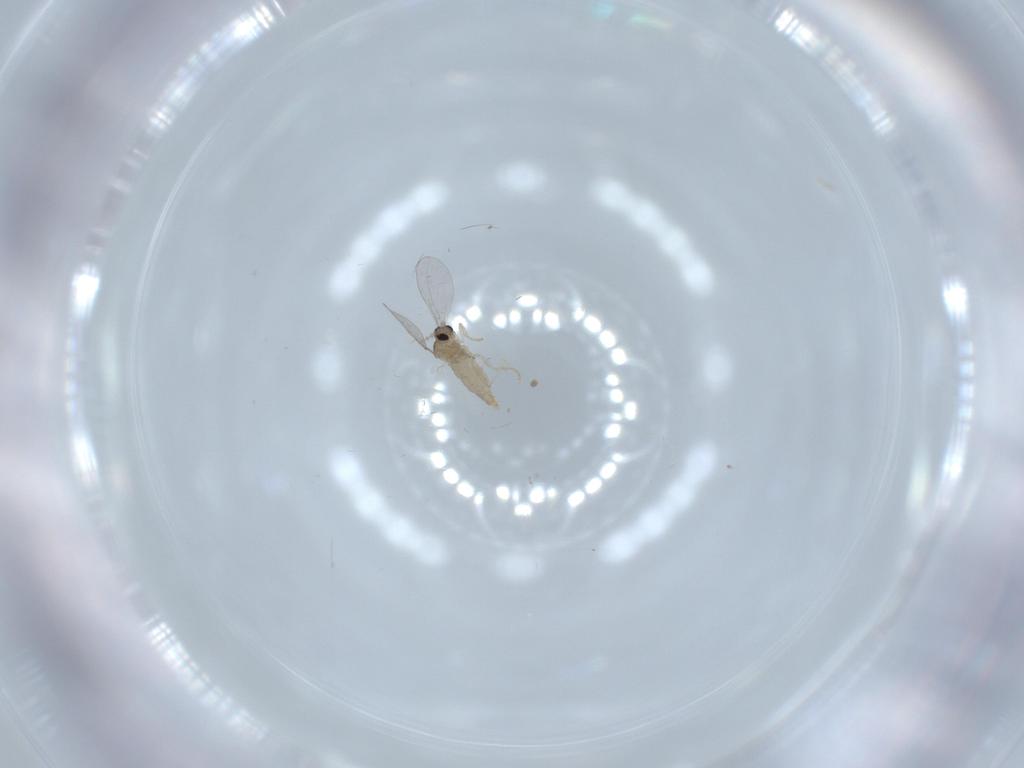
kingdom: Animalia
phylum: Arthropoda
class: Insecta
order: Diptera
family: Cecidomyiidae
